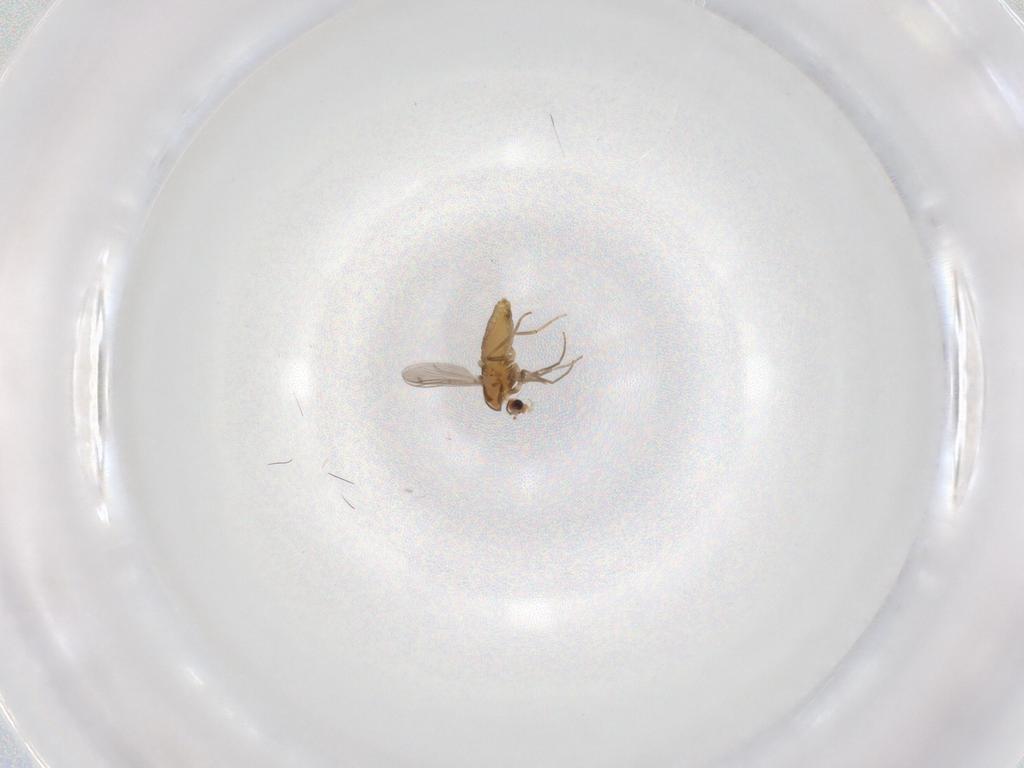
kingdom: Animalia
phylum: Arthropoda
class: Insecta
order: Diptera
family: Chironomidae
